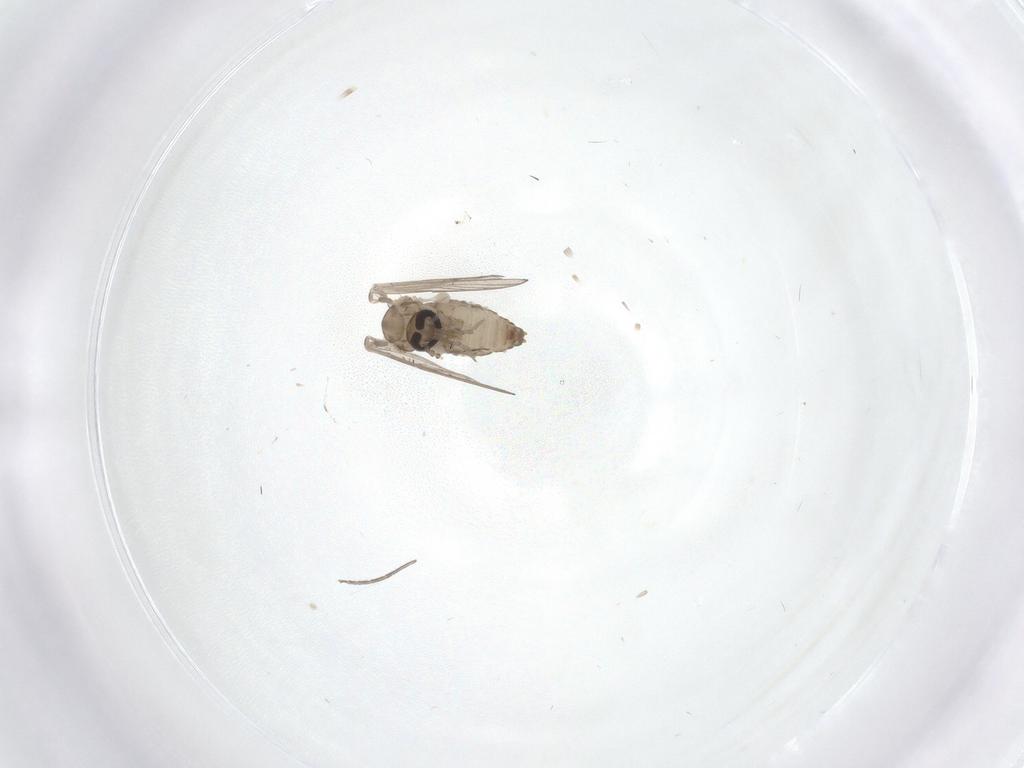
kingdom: Animalia
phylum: Arthropoda
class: Insecta
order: Diptera
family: Psychodidae
